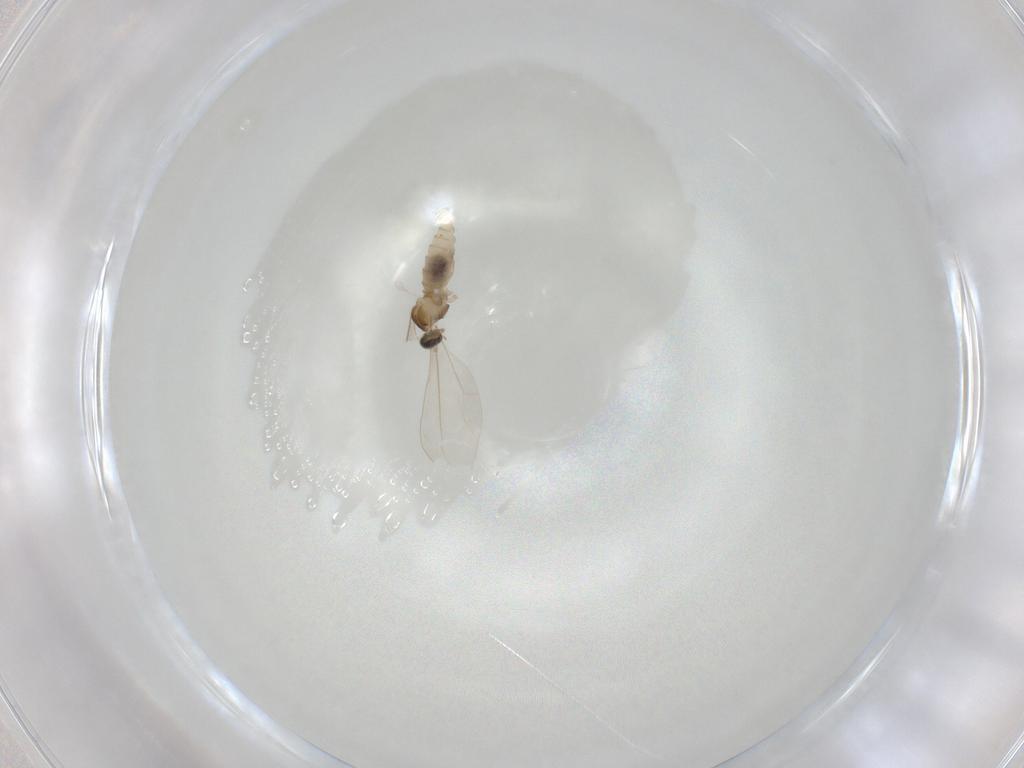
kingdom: Animalia
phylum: Arthropoda
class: Insecta
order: Diptera
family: Cecidomyiidae
